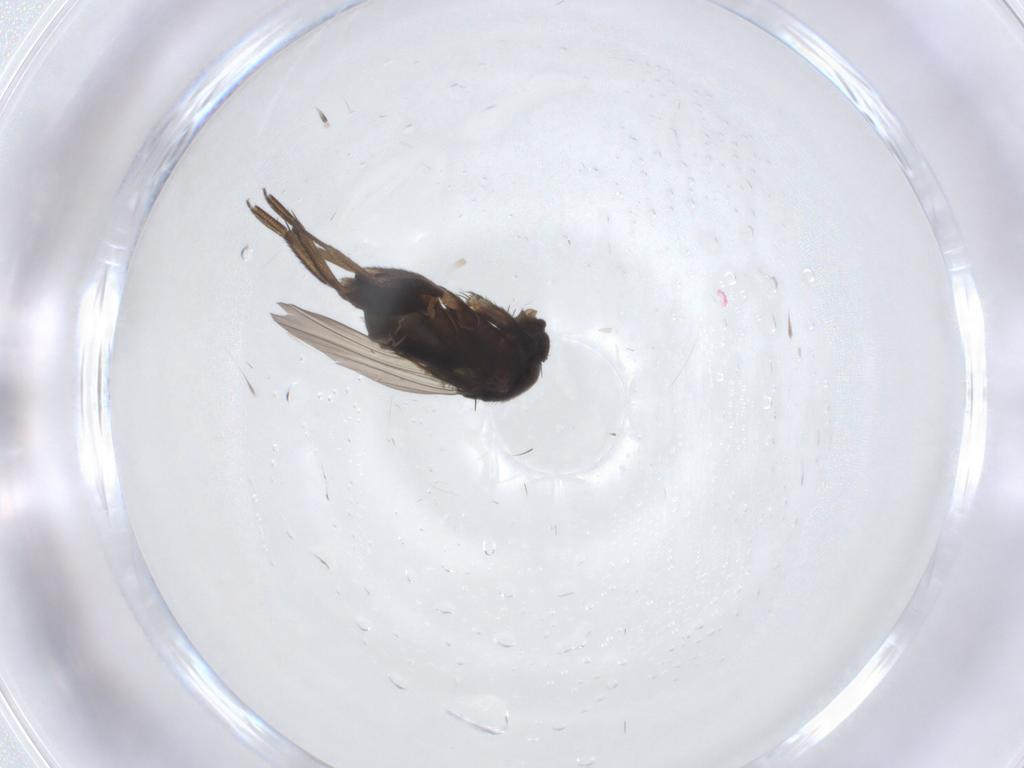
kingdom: Animalia
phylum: Arthropoda
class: Insecta
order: Diptera
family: Phoridae
